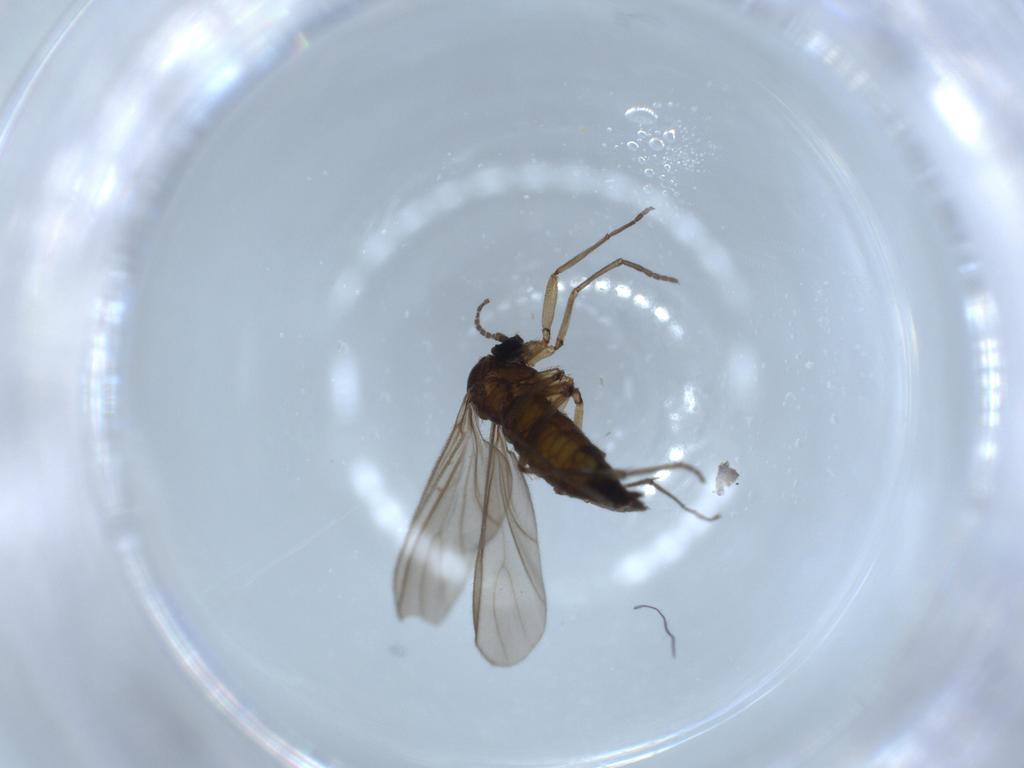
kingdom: Animalia
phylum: Arthropoda
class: Insecta
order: Diptera
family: Sciaridae
